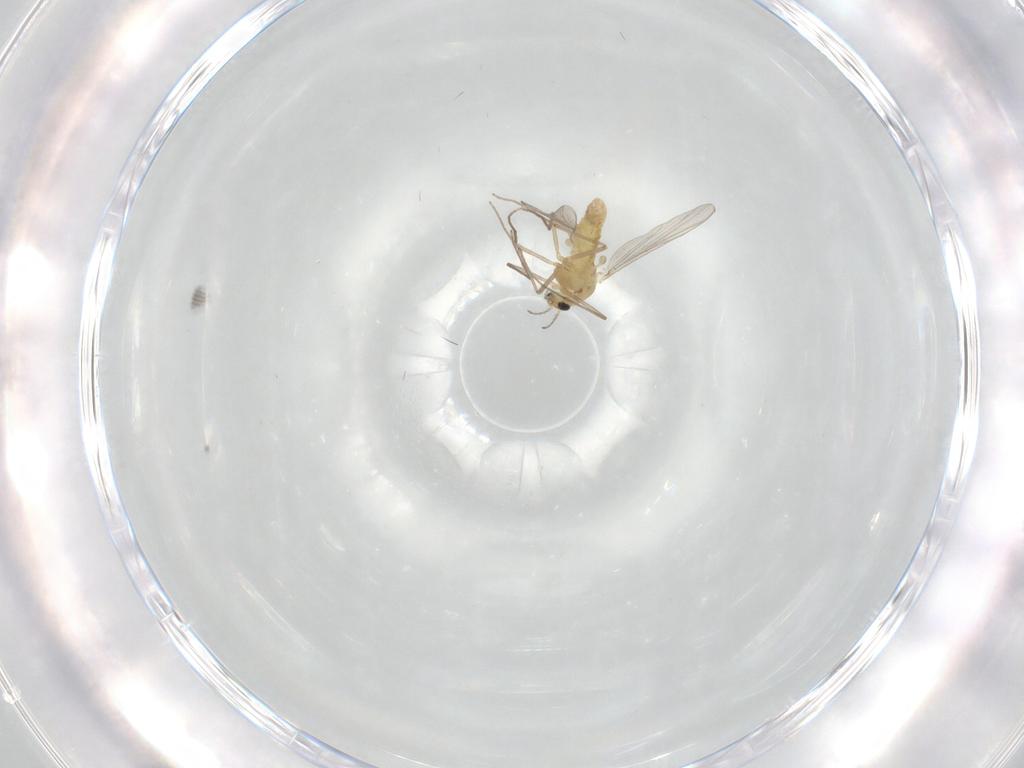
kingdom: Animalia
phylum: Arthropoda
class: Insecta
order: Diptera
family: Chironomidae
